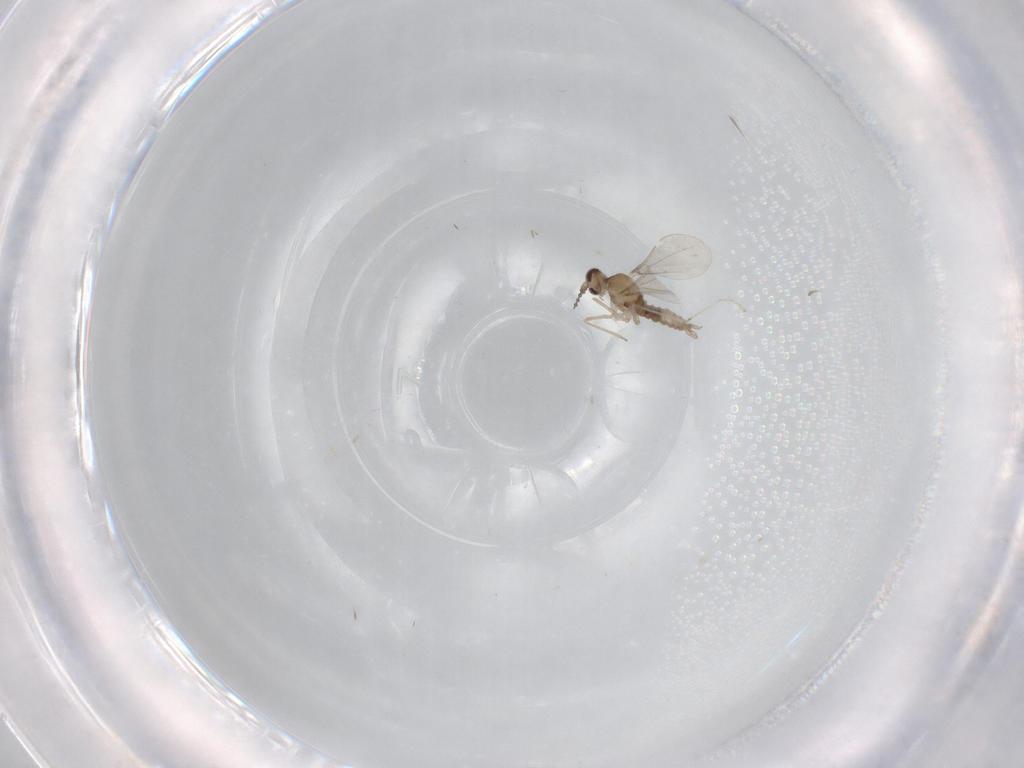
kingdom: Animalia
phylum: Arthropoda
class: Insecta
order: Diptera
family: Cecidomyiidae
